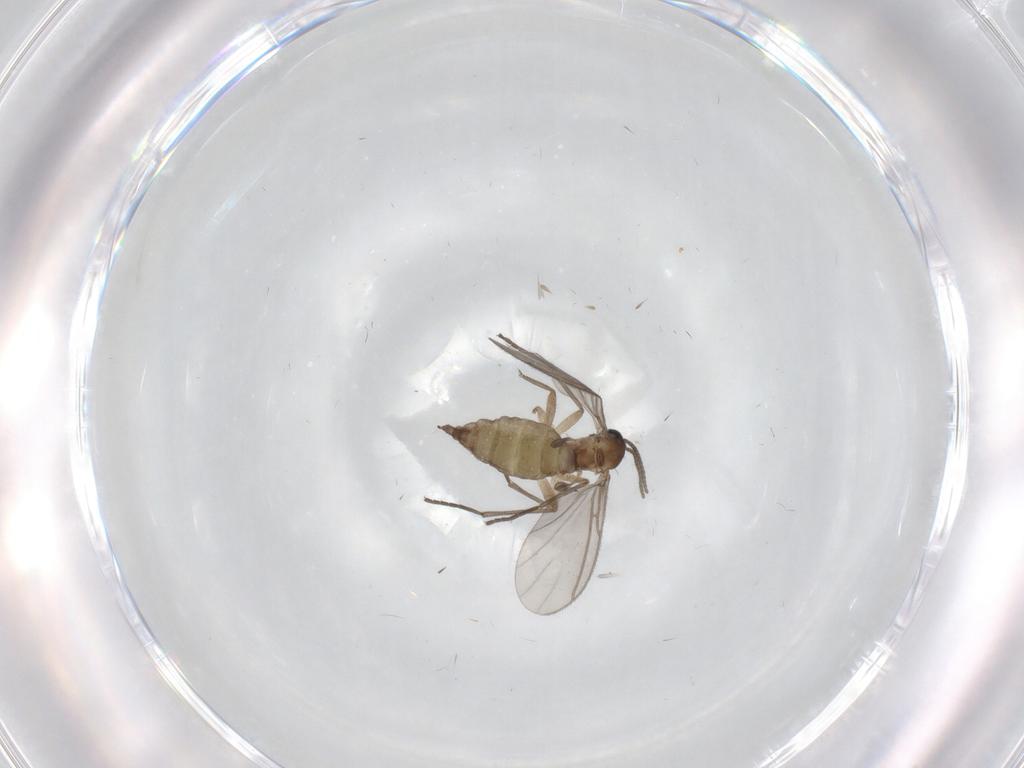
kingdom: Animalia
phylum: Arthropoda
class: Insecta
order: Diptera
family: Sciaridae
